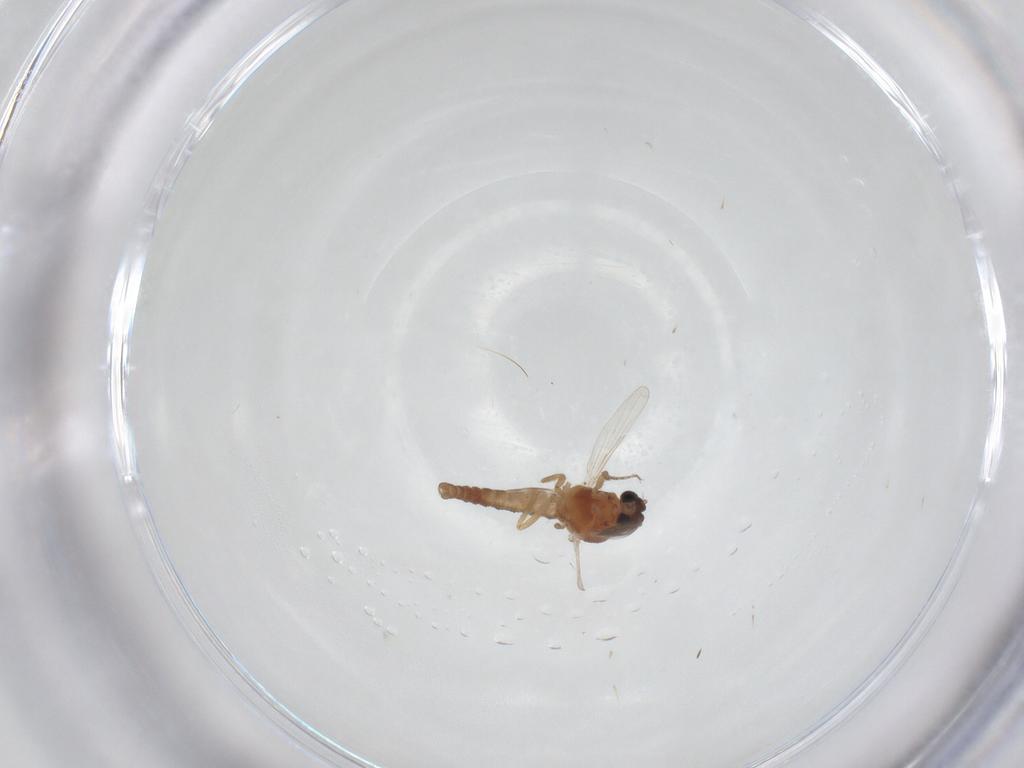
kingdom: Animalia
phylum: Arthropoda
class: Insecta
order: Diptera
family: Ceratopogonidae
